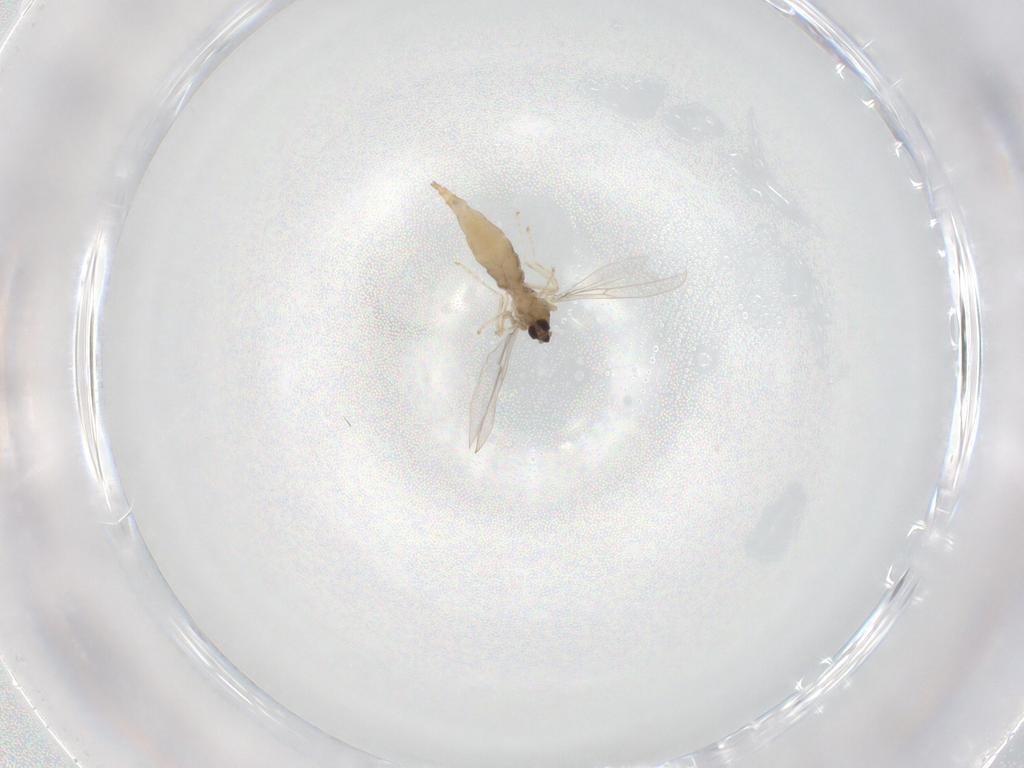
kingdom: Animalia
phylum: Arthropoda
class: Insecta
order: Diptera
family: Cecidomyiidae
